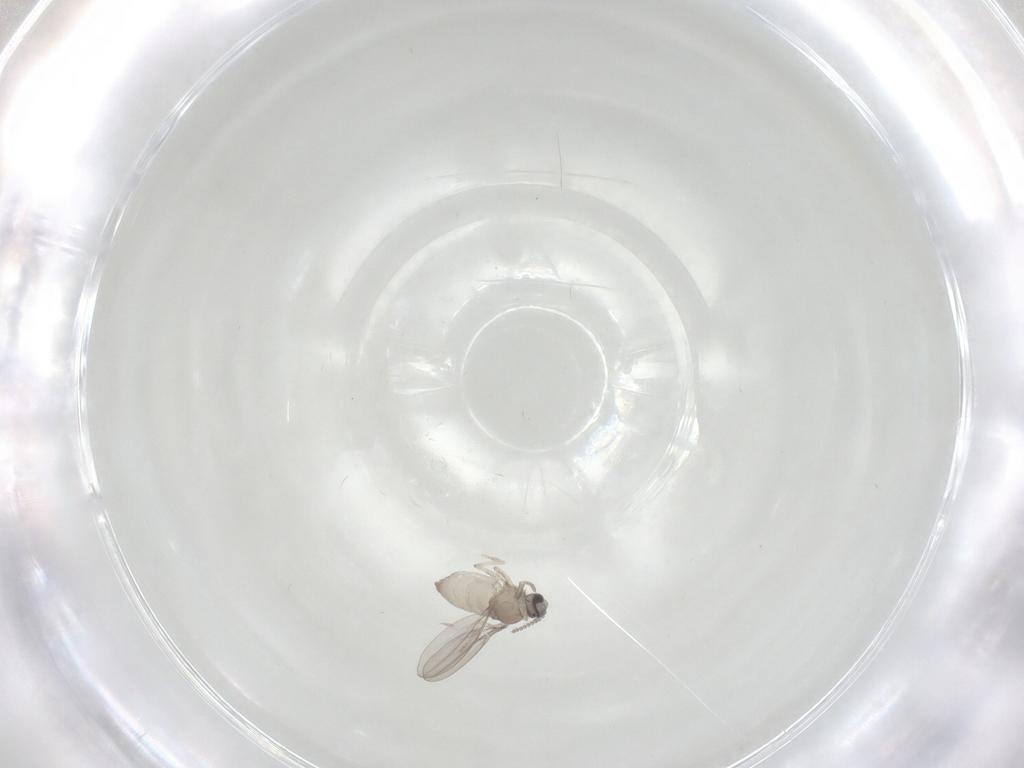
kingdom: Animalia
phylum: Arthropoda
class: Insecta
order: Diptera
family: Cecidomyiidae
